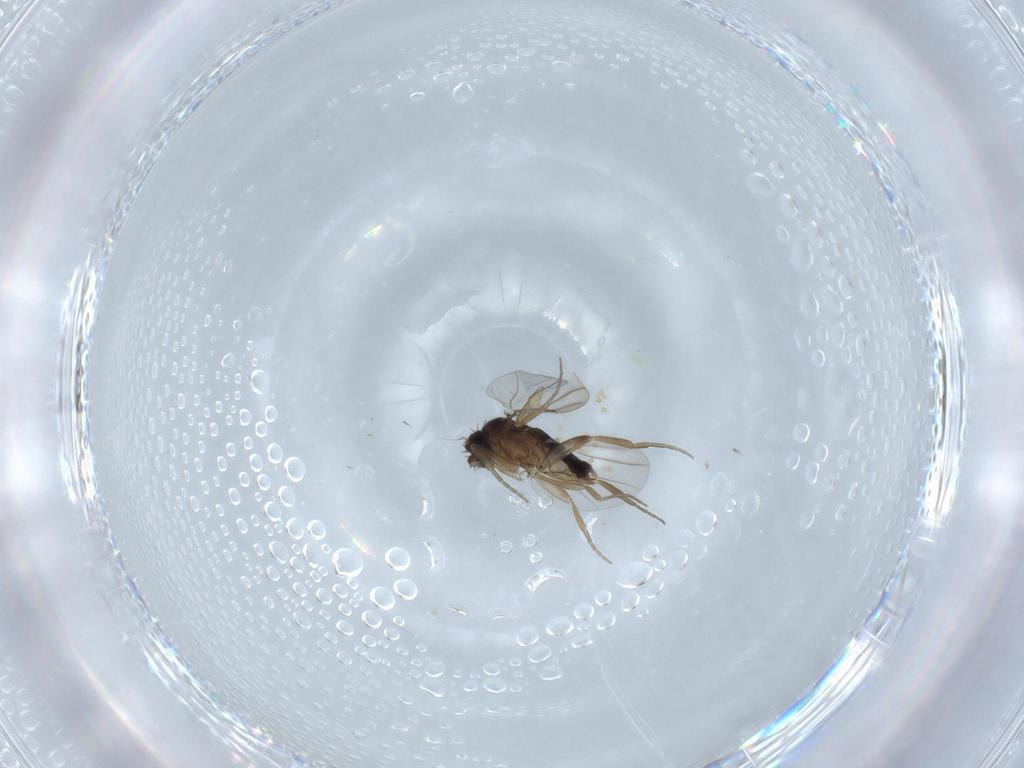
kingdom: Animalia
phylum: Arthropoda
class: Insecta
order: Diptera
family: Phoridae
